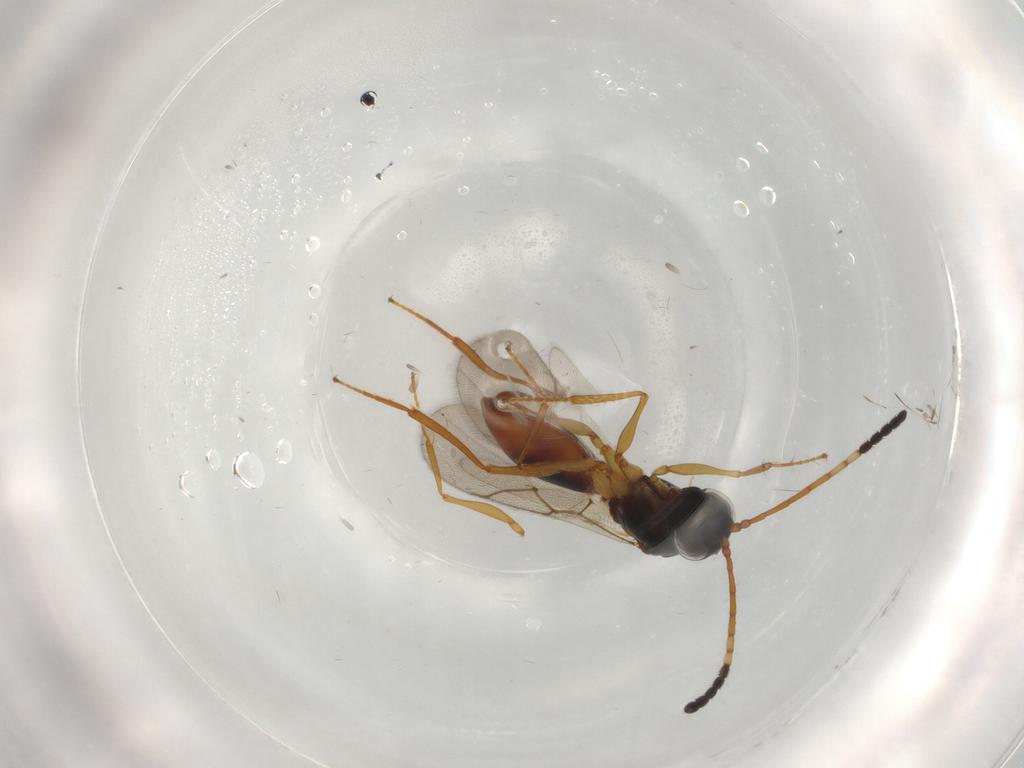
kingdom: Animalia
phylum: Arthropoda
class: Insecta
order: Hymenoptera
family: Figitidae
